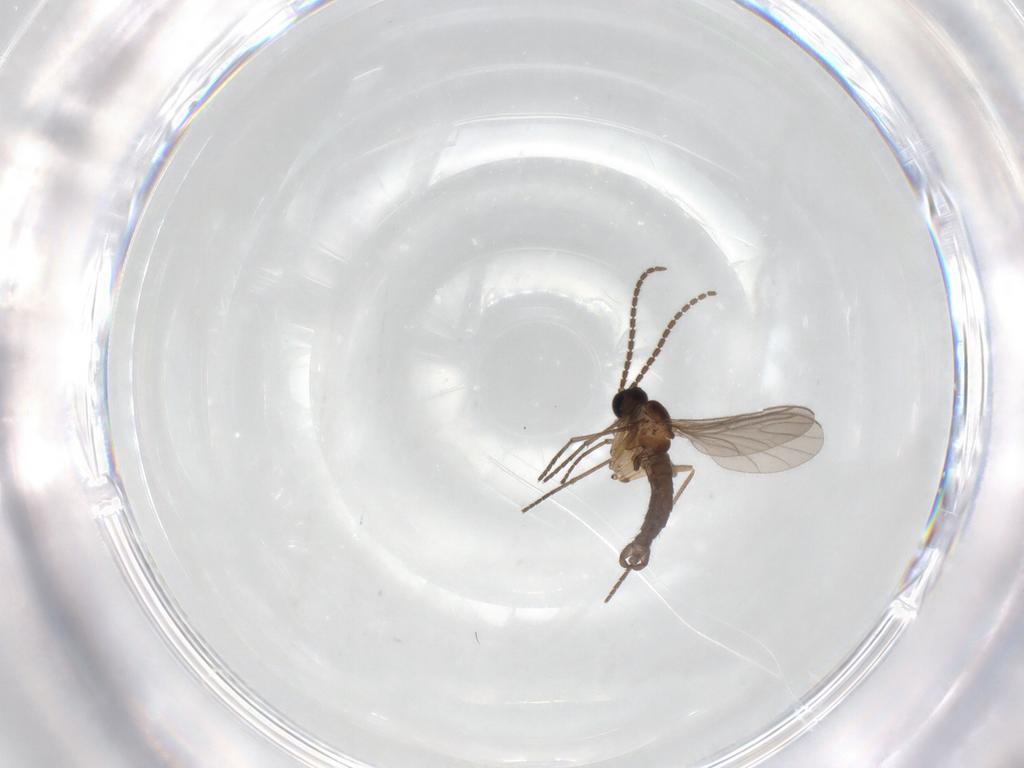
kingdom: Animalia
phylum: Arthropoda
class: Insecta
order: Diptera
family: Sciaridae
